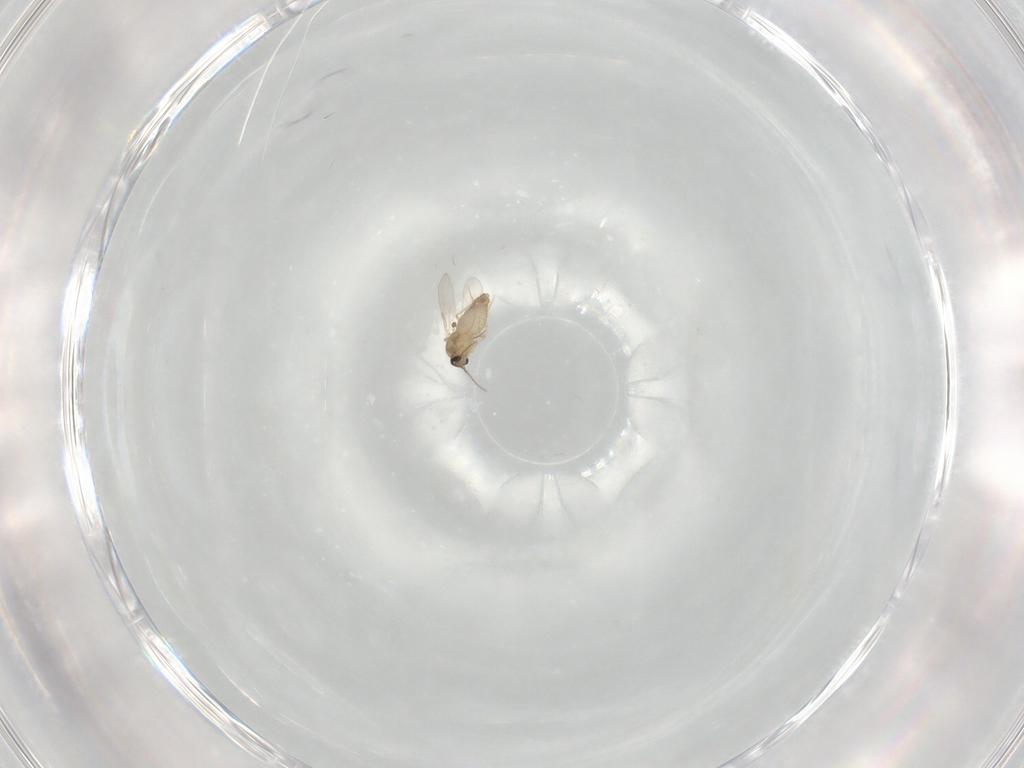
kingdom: Animalia
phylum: Arthropoda
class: Insecta
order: Diptera
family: Ceratopogonidae
